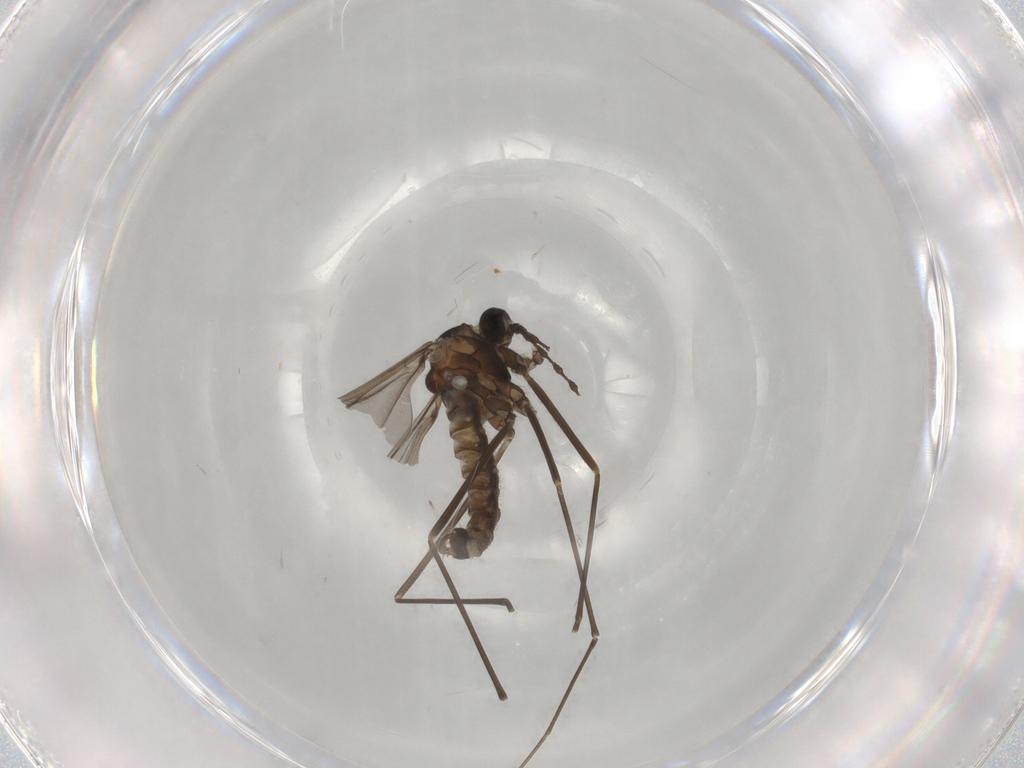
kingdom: Animalia
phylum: Arthropoda
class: Insecta
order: Diptera
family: Cecidomyiidae
